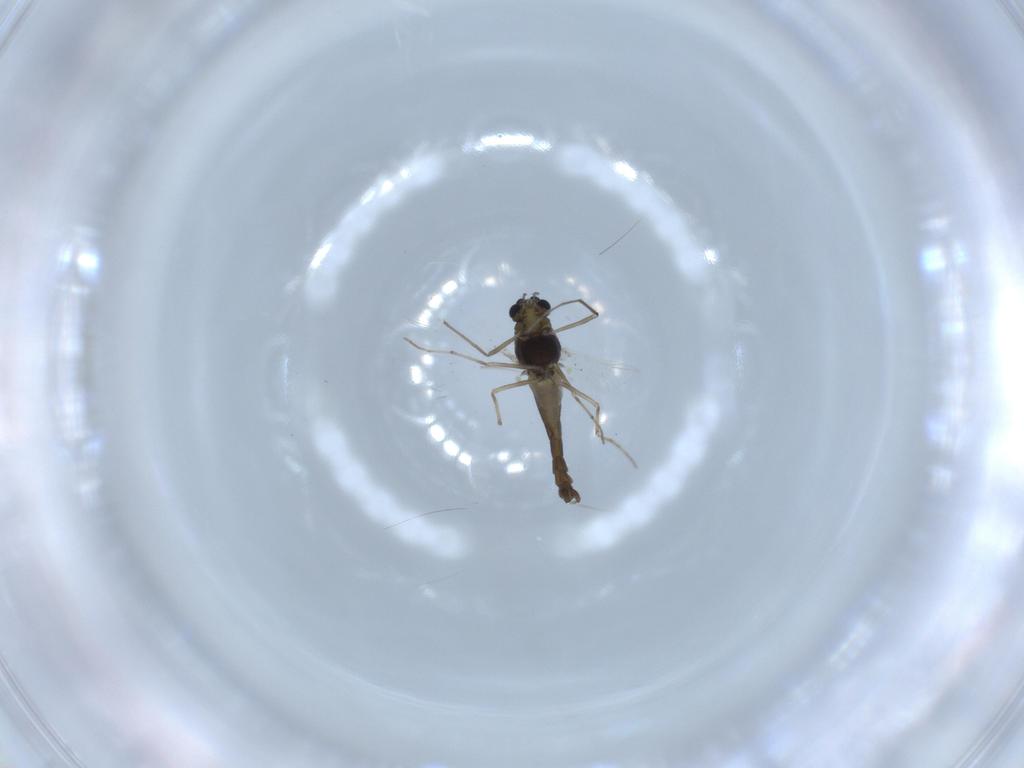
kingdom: Animalia
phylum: Arthropoda
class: Insecta
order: Diptera
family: Chironomidae
